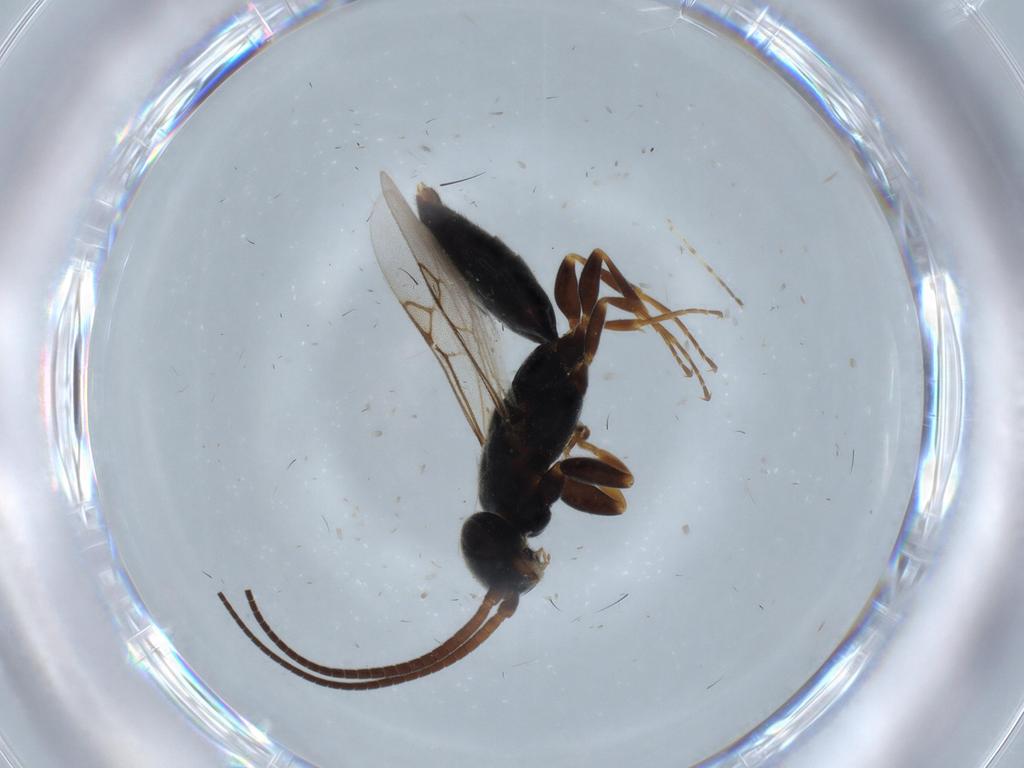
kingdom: Animalia
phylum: Arthropoda
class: Insecta
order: Hymenoptera
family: Sclerogibbidae
